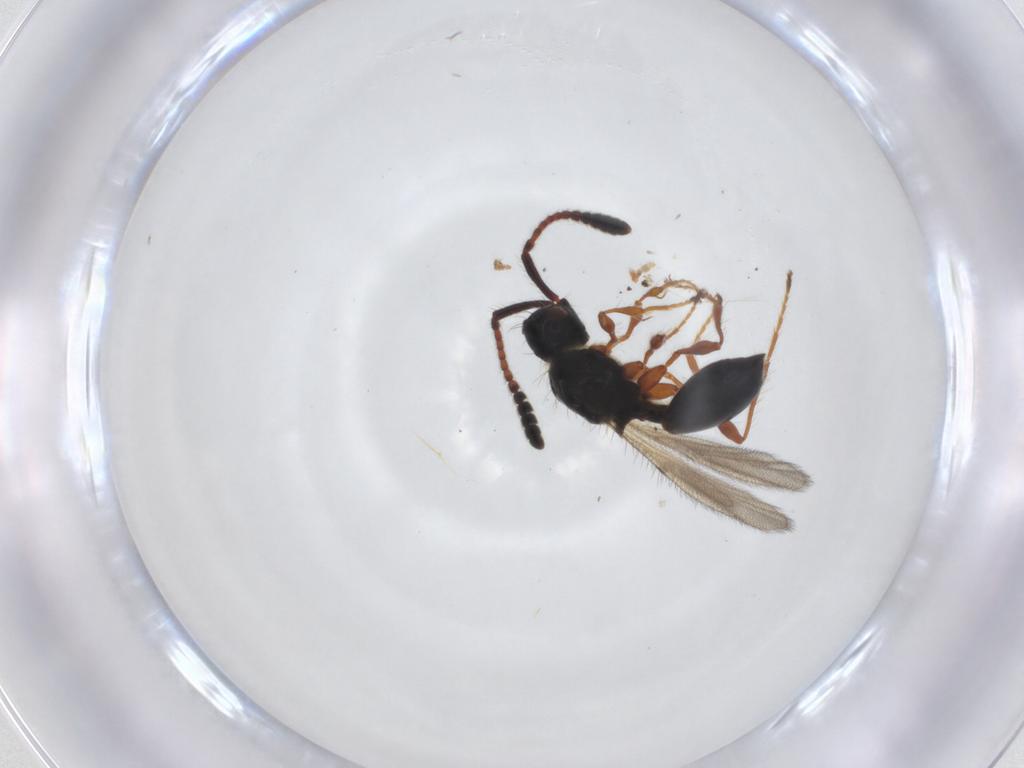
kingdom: Animalia
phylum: Arthropoda
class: Insecta
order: Hymenoptera
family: Diapriidae
